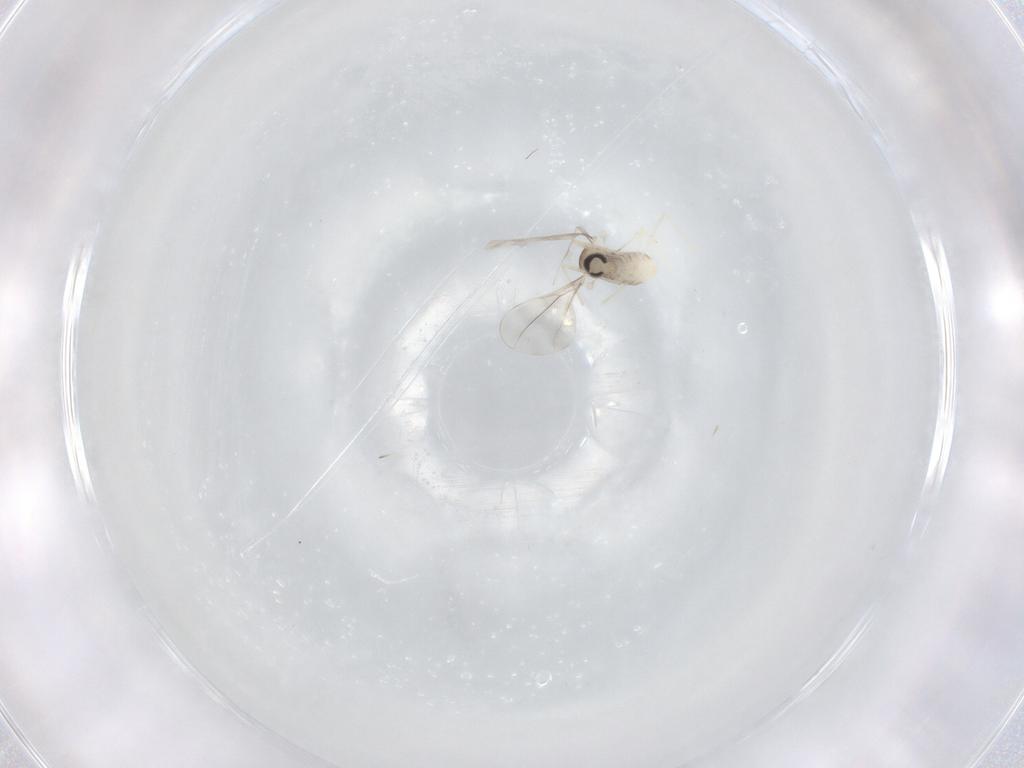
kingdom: Animalia
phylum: Arthropoda
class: Insecta
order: Diptera
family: Cecidomyiidae
